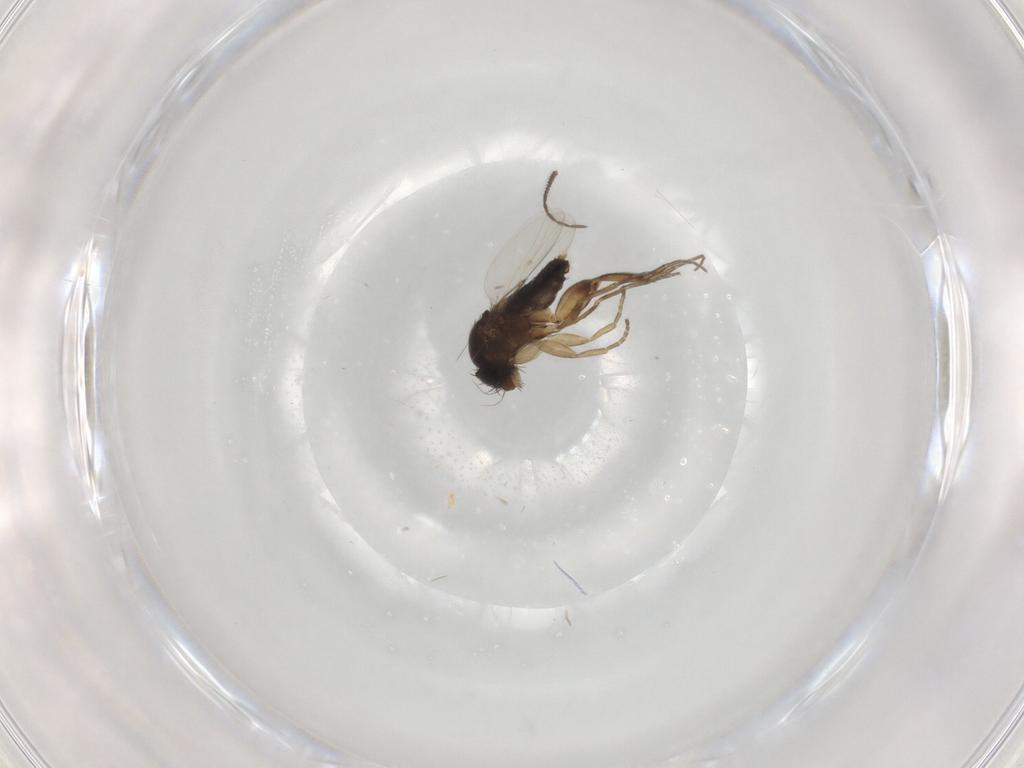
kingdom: Animalia
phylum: Arthropoda
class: Insecta
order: Diptera
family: Phoridae
